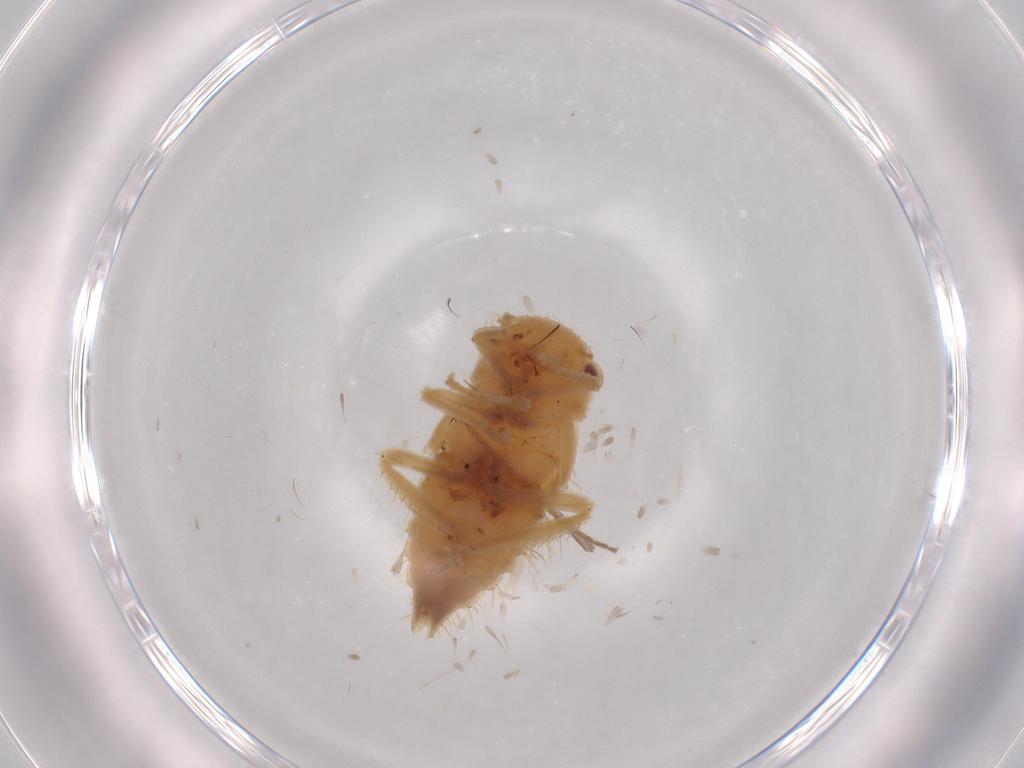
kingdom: Animalia
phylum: Arthropoda
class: Insecta
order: Hemiptera
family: Cicadellidae
